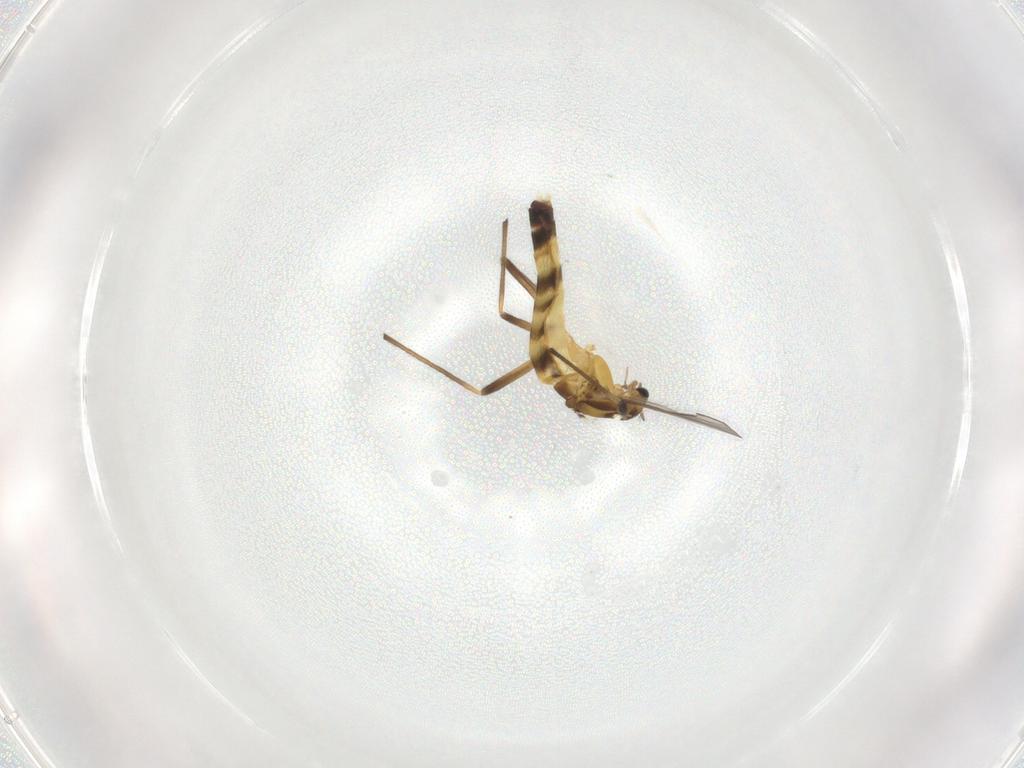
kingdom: Animalia
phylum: Arthropoda
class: Insecta
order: Diptera
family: Chironomidae
